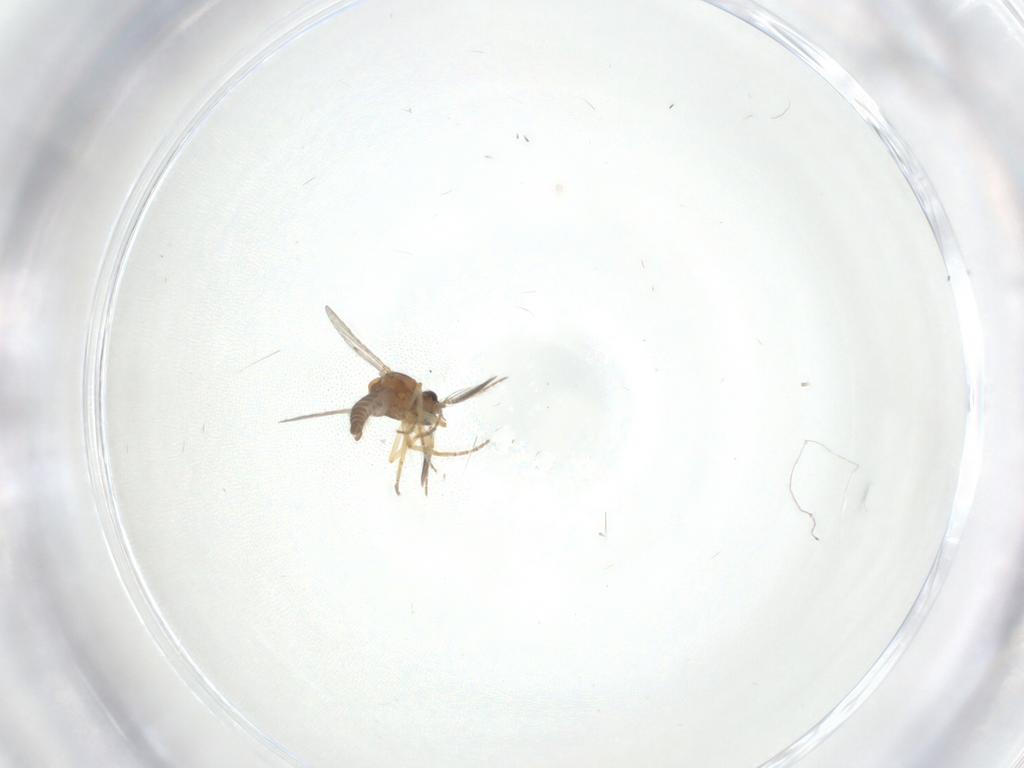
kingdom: Animalia
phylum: Arthropoda
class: Insecta
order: Diptera
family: Ceratopogonidae
